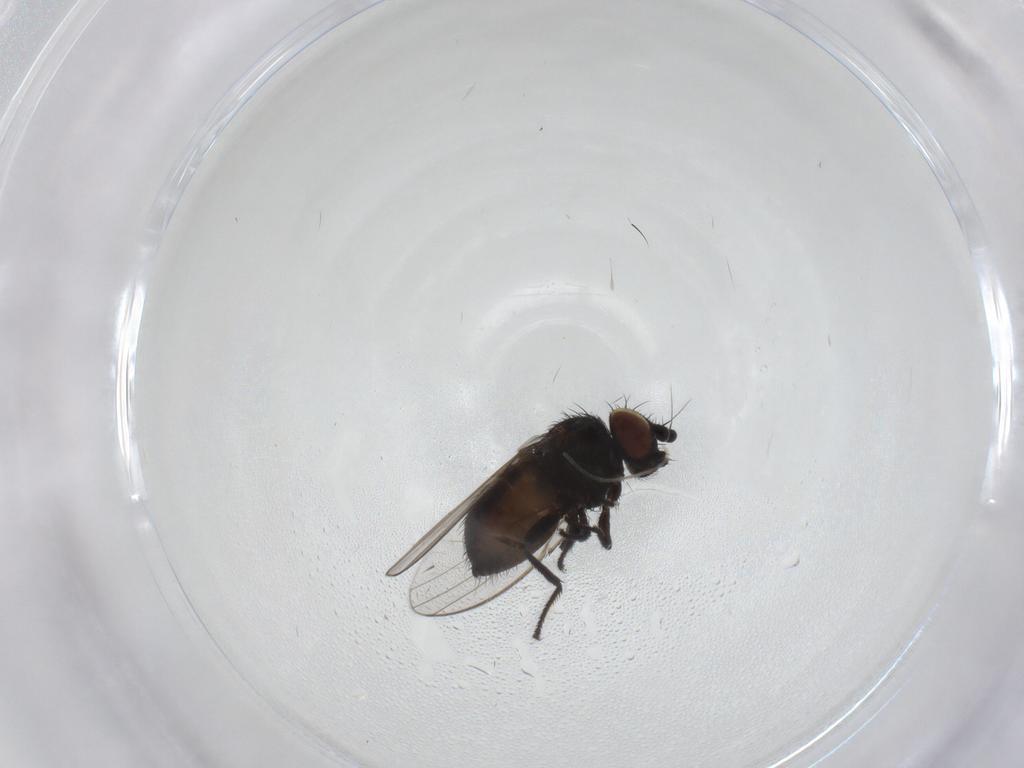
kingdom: Animalia
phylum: Arthropoda
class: Insecta
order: Diptera
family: Milichiidae
